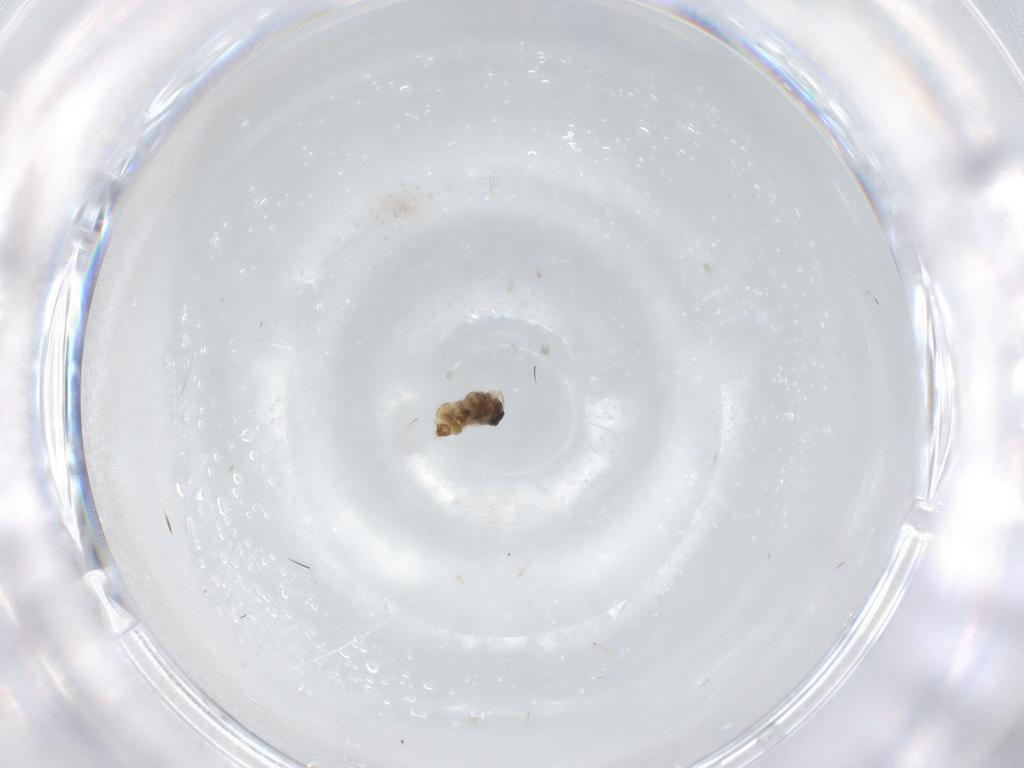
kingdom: Animalia
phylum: Arthropoda
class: Insecta
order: Diptera
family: Cecidomyiidae
